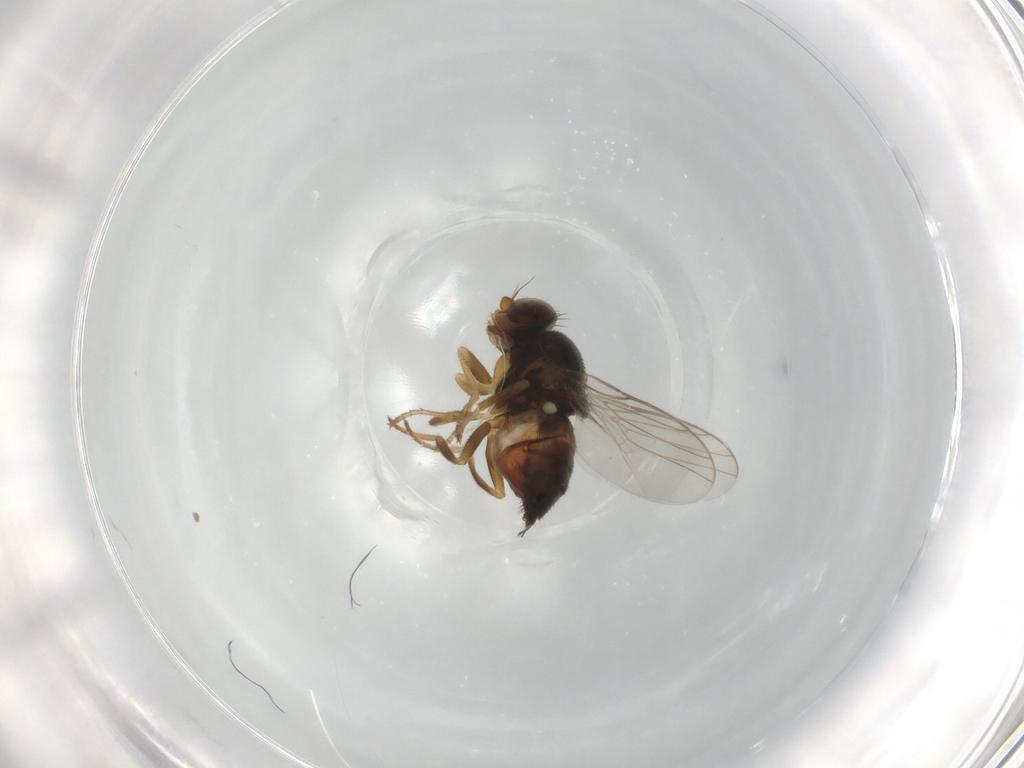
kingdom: Animalia
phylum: Arthropoda
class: Insecta
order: Diptera
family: Chloropidae
